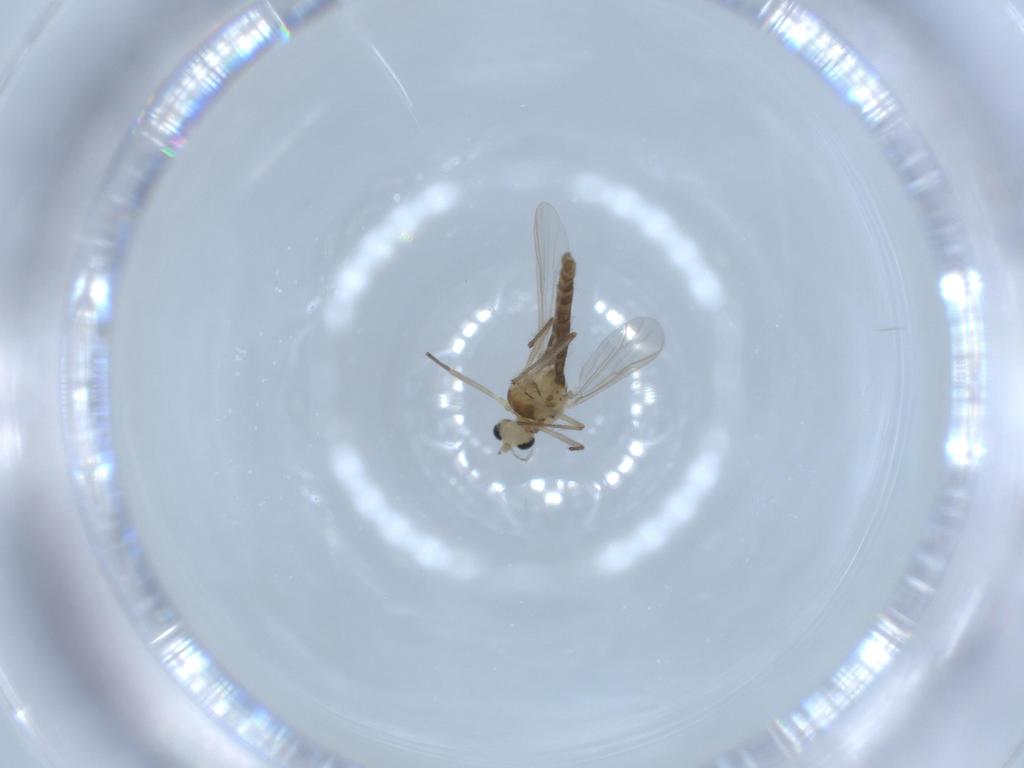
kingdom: Animalia
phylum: Arthropoda
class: Insecta
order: Diptera
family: Chironomidae
